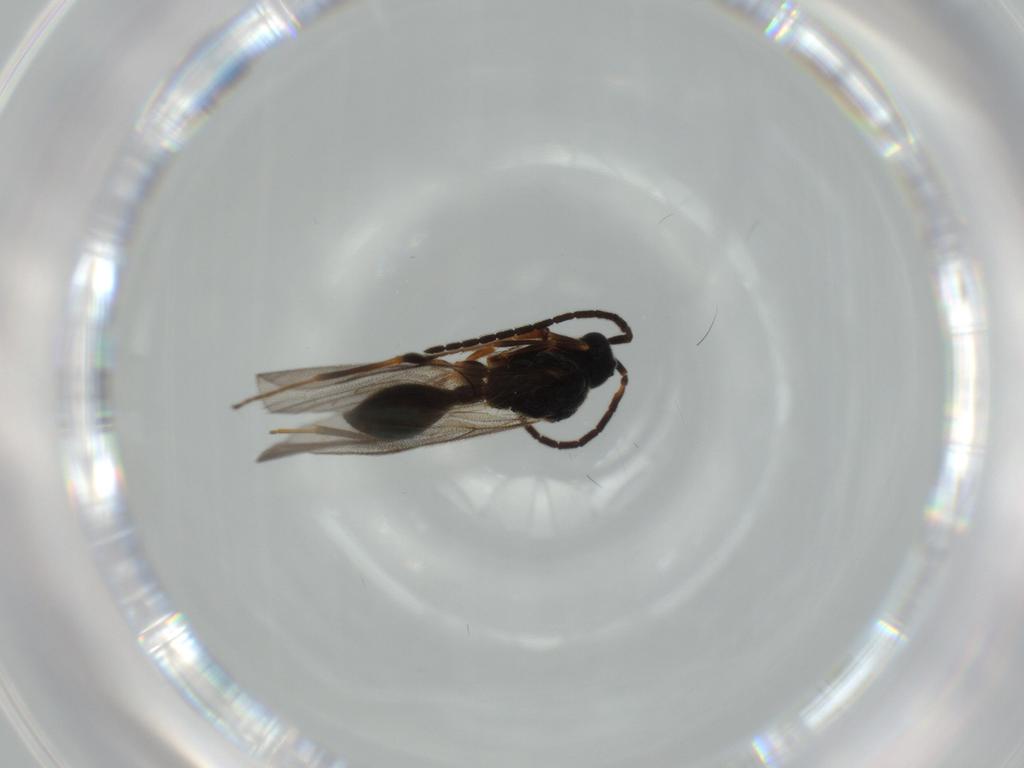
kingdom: Animalia
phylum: Arthropoda
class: Insecta
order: Hymenoptera
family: Ichneumonidae
